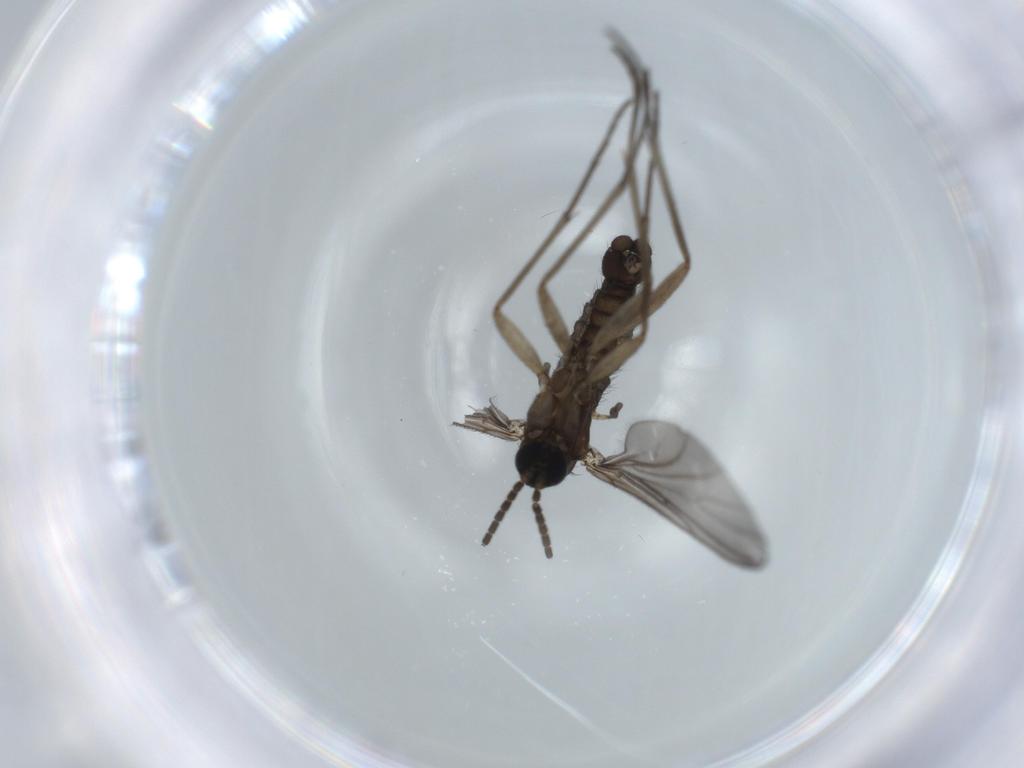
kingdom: Animalia
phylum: Arthropoda
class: Insecta
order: Diptera
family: Sciaridae
